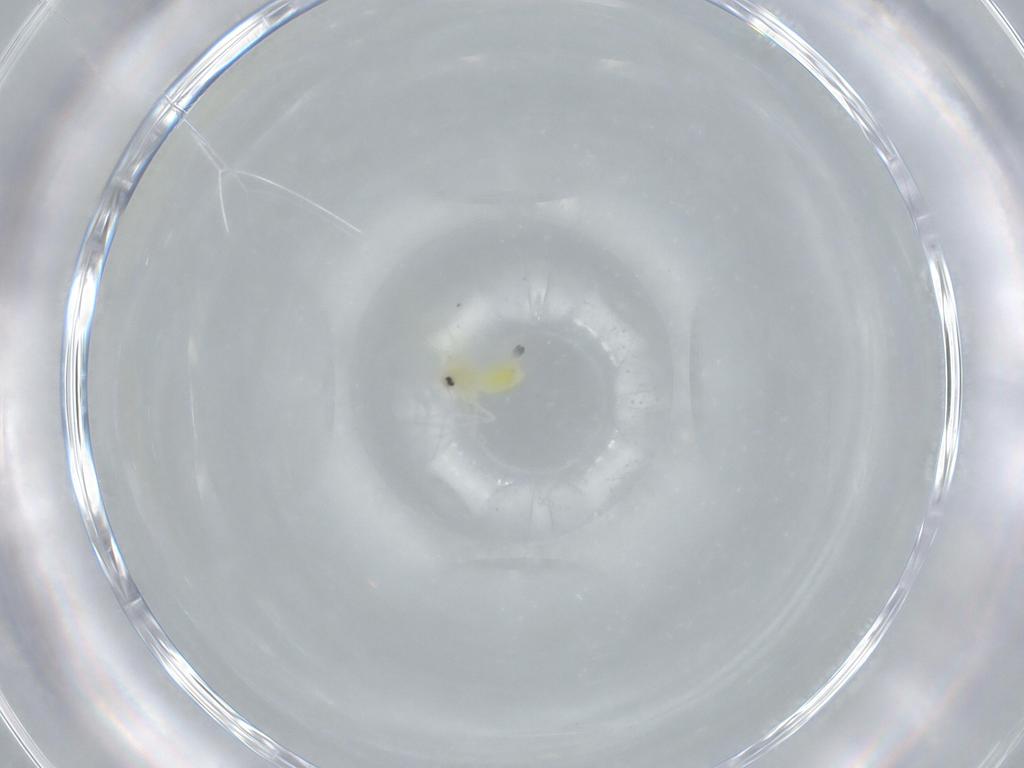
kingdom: Animalia
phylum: Arthropoda
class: Insecta
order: Hemiptera
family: Aleyrodidae
